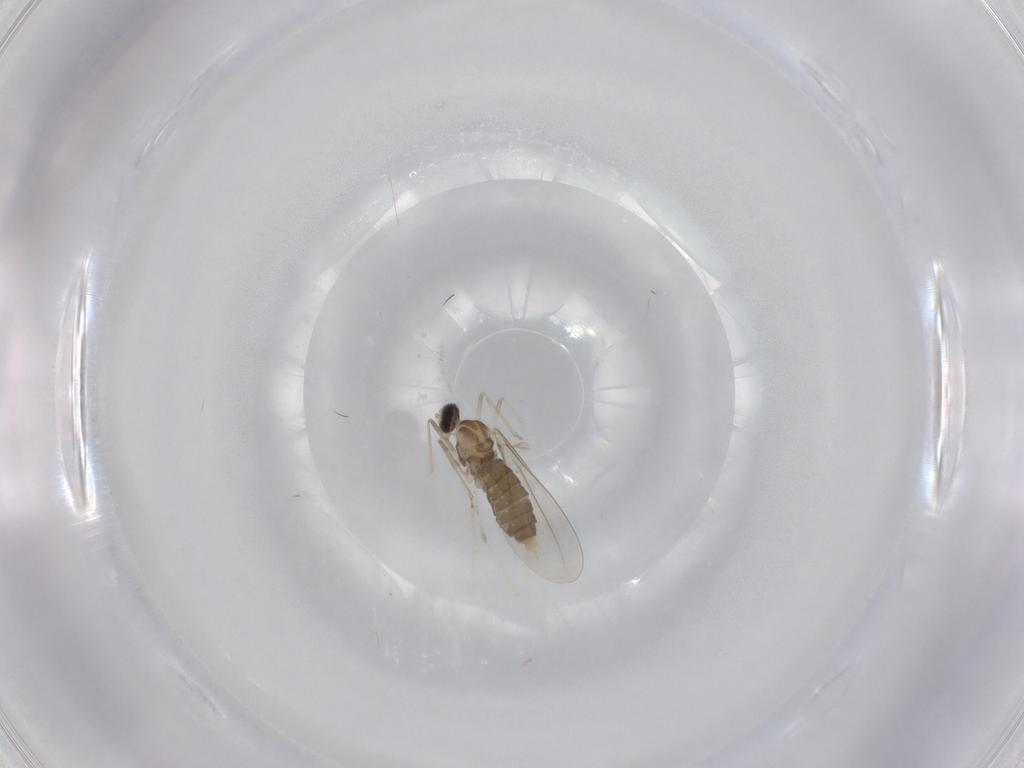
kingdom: Animalia
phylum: Arthropoda
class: Insecta
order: Diptera
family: Cecidomyiidae
